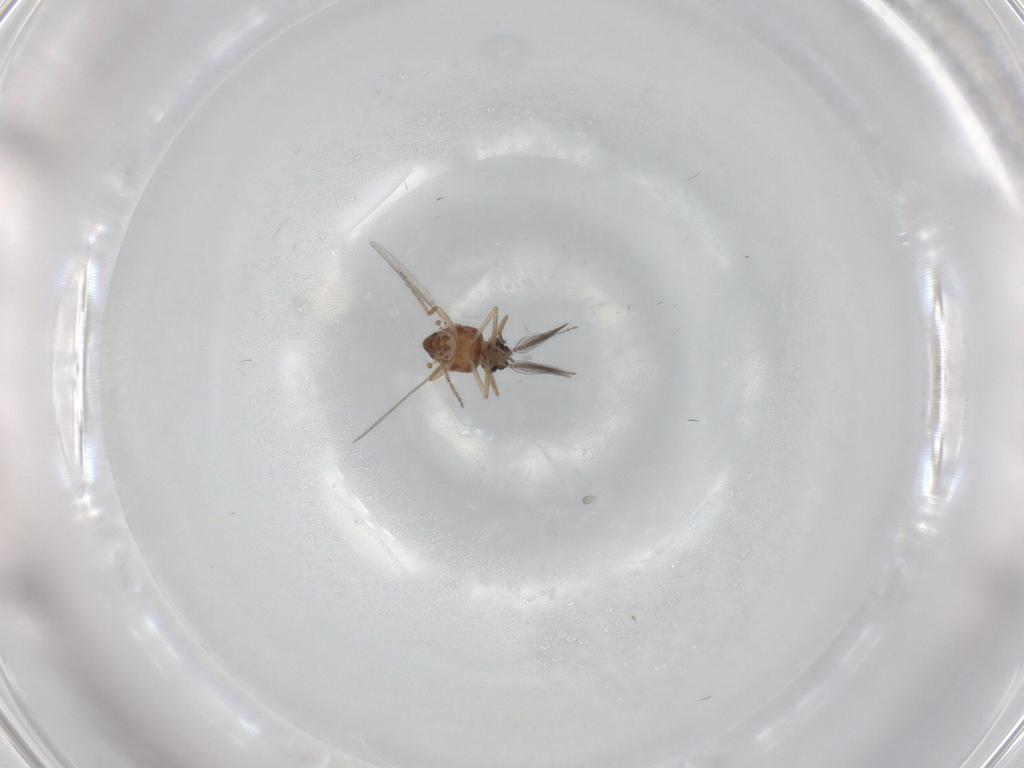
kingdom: Animalia
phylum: Arthropoda
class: Insecta
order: Diptera
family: Ceratopogonidae
